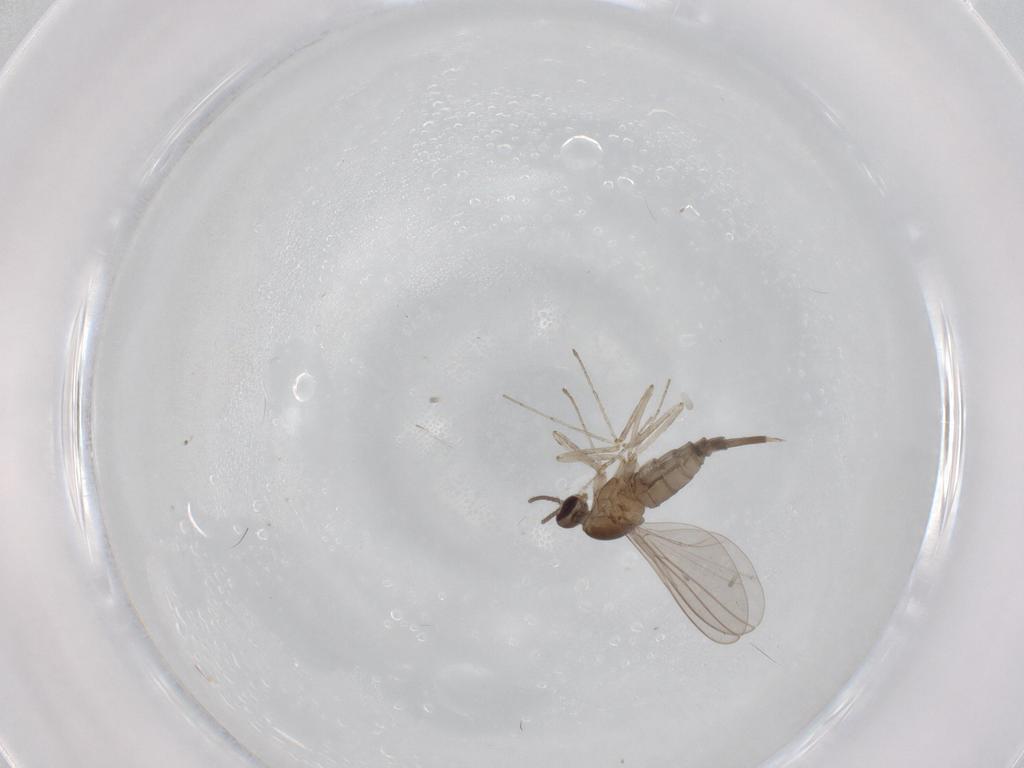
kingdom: Animalia
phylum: Arthropoda
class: Insecta
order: Diptera
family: Cecidomyiidae
